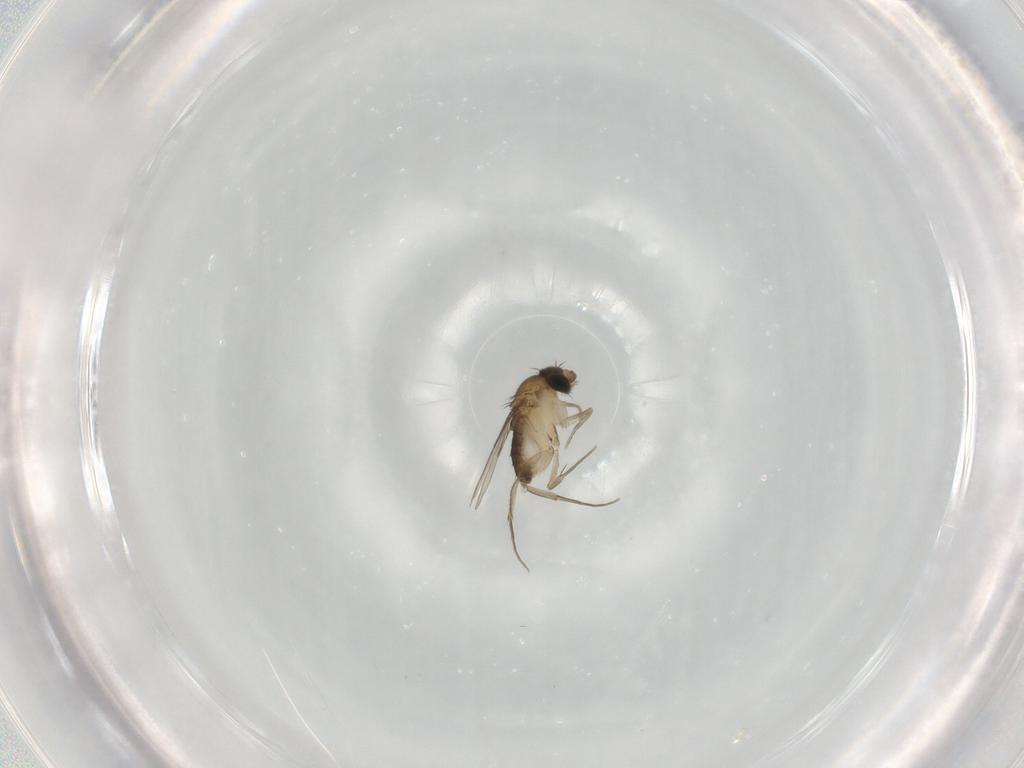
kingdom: Animalia
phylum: Arthropoda
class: Insecta
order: Diptera
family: Phoridae
